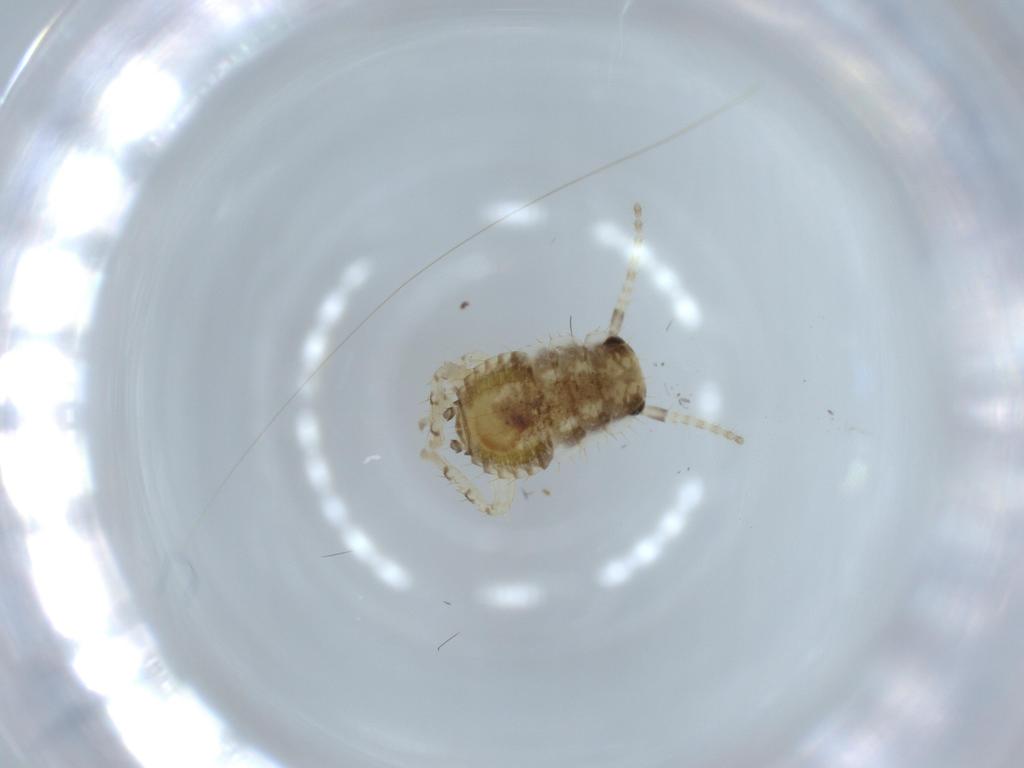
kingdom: Animalia
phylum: Arthropoda
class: Insecta
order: Blattodea
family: Ectobiidae
